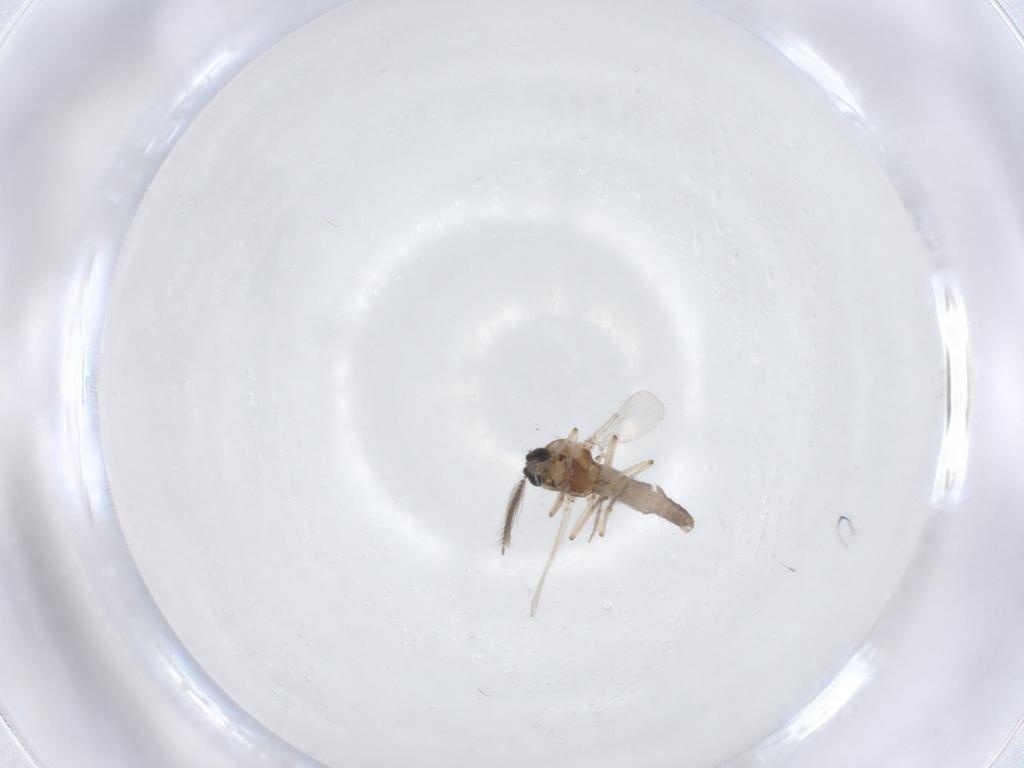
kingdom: Animalia
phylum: Arthropoda
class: Insecta
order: Diptera
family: Ceratopogonidae
